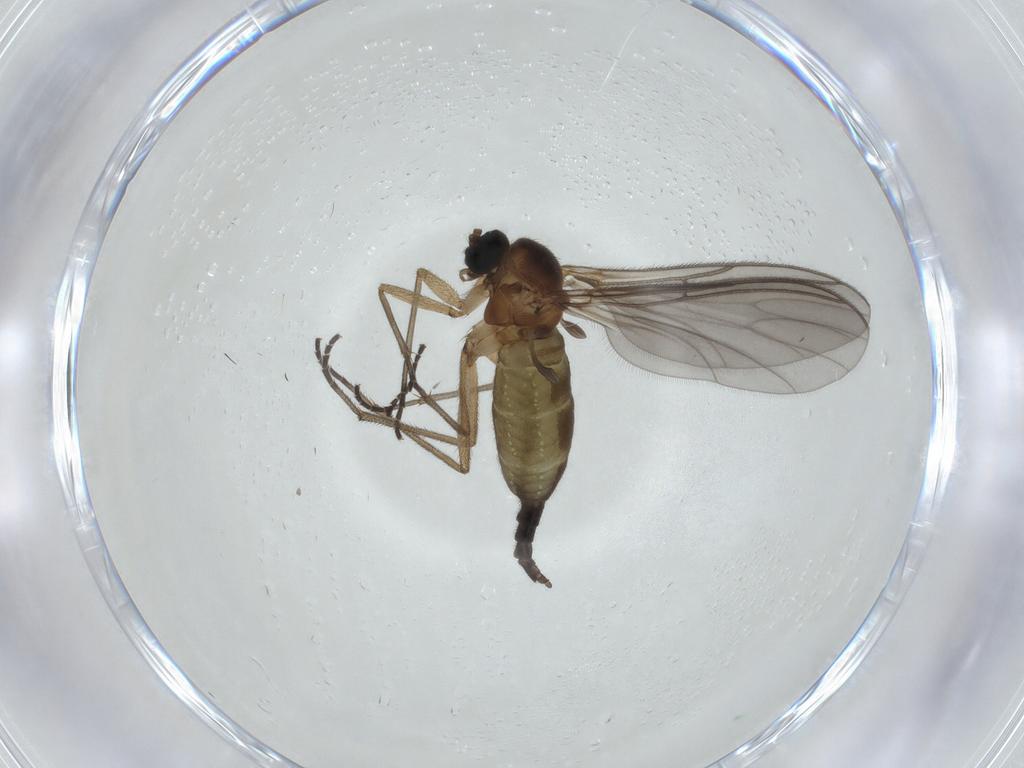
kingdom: Animalia
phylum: Arthropoda
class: Insecta
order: Diptera
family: Sciaridae
